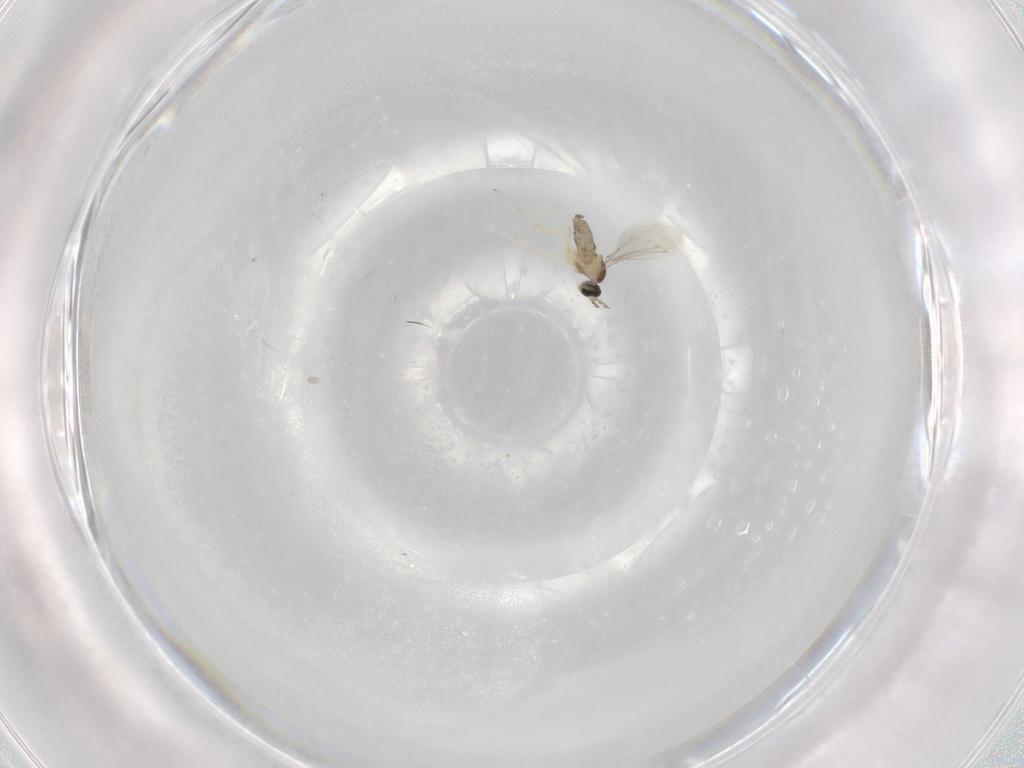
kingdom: Animalia
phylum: Arthropoda
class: Insecta
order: Diptera
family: Cecidomyiidae
